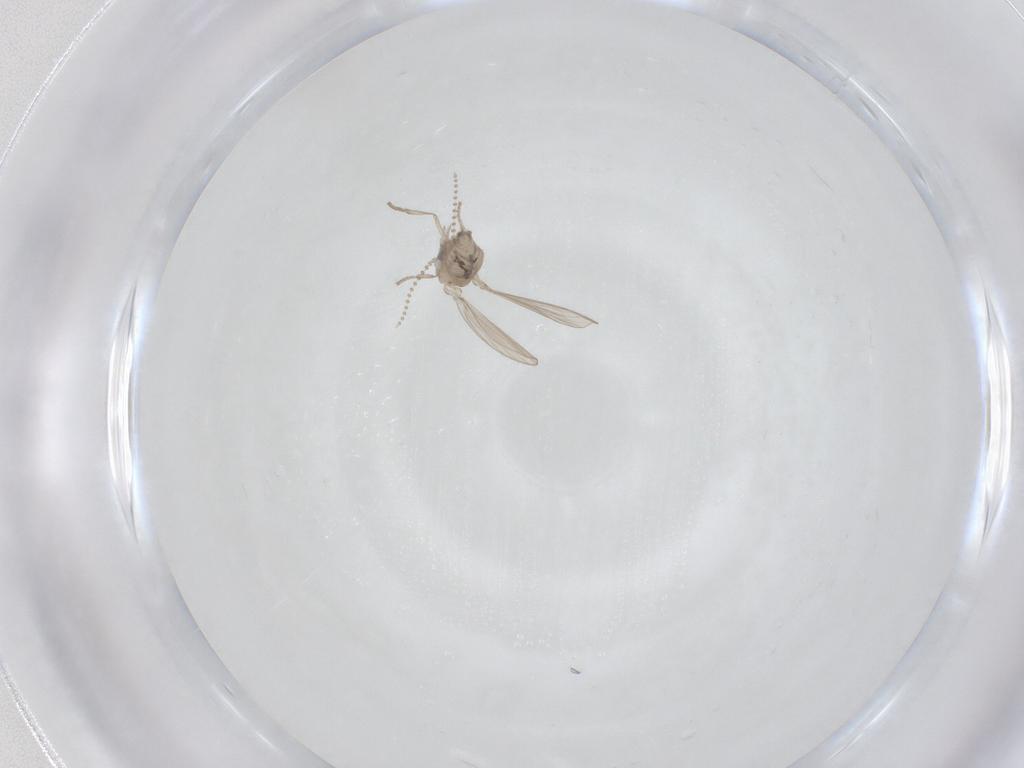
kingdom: Animalia
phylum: Arthropoda
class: Insecta
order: Diptera
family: Psychodidae
